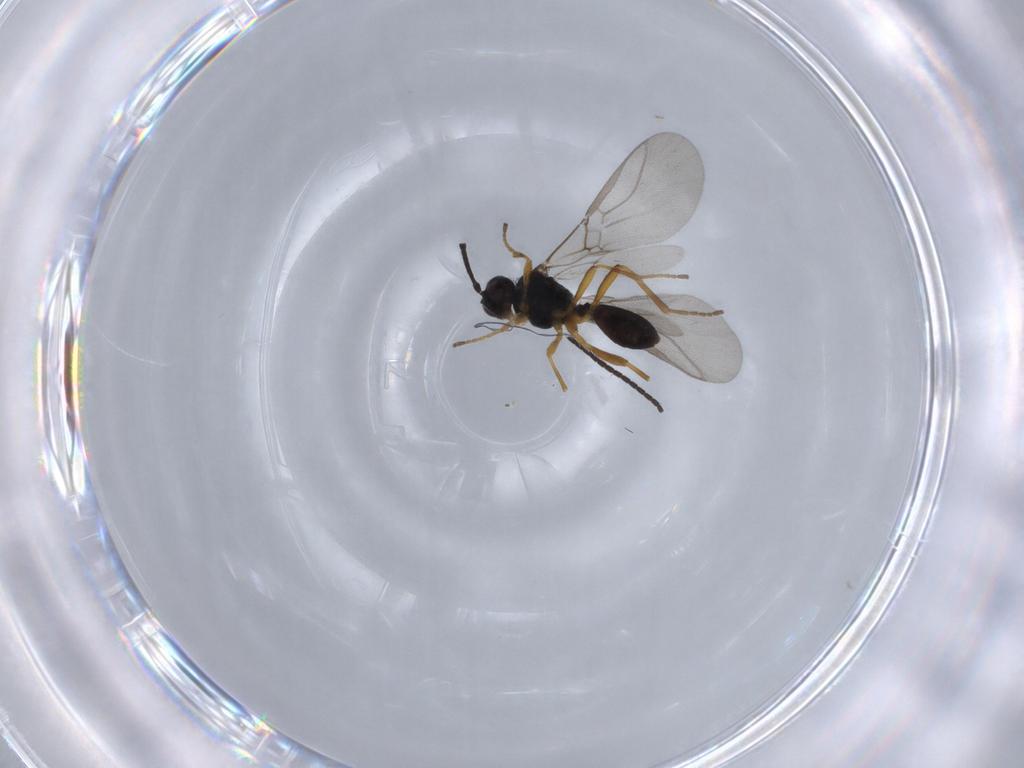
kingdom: Animalia
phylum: Arthropoda
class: Insecta
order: Hymenoptera
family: Braconidae
